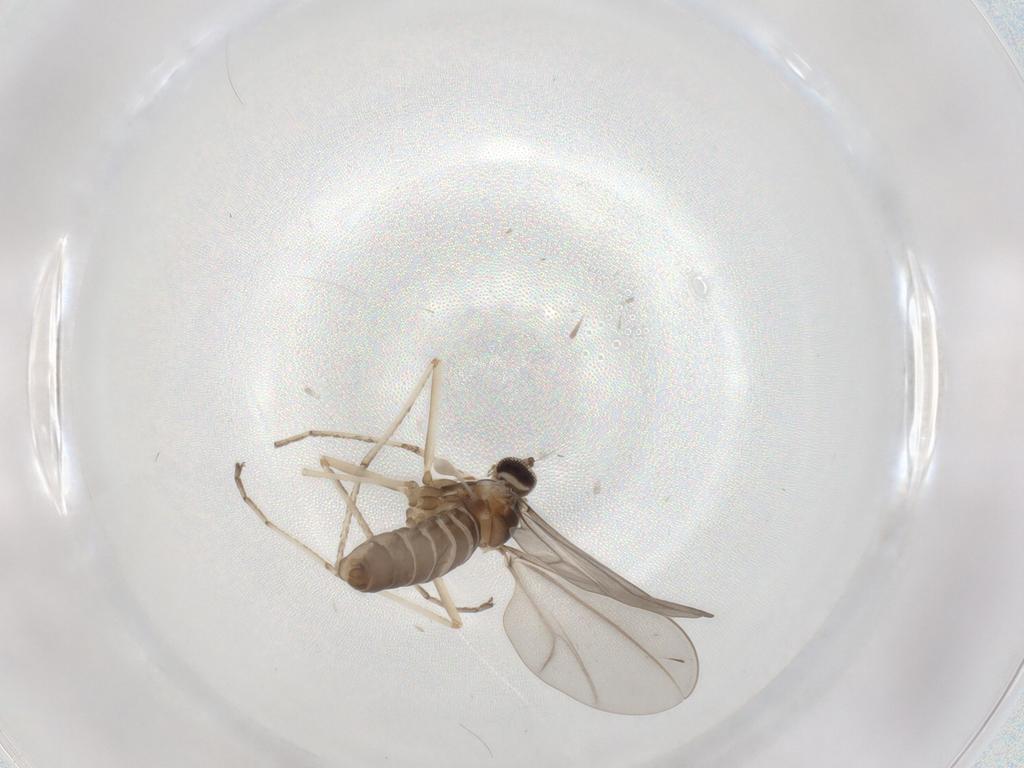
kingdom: Animalia
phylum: Arthropoda
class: Insecta
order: Diptera
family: Cecidomyiidae
